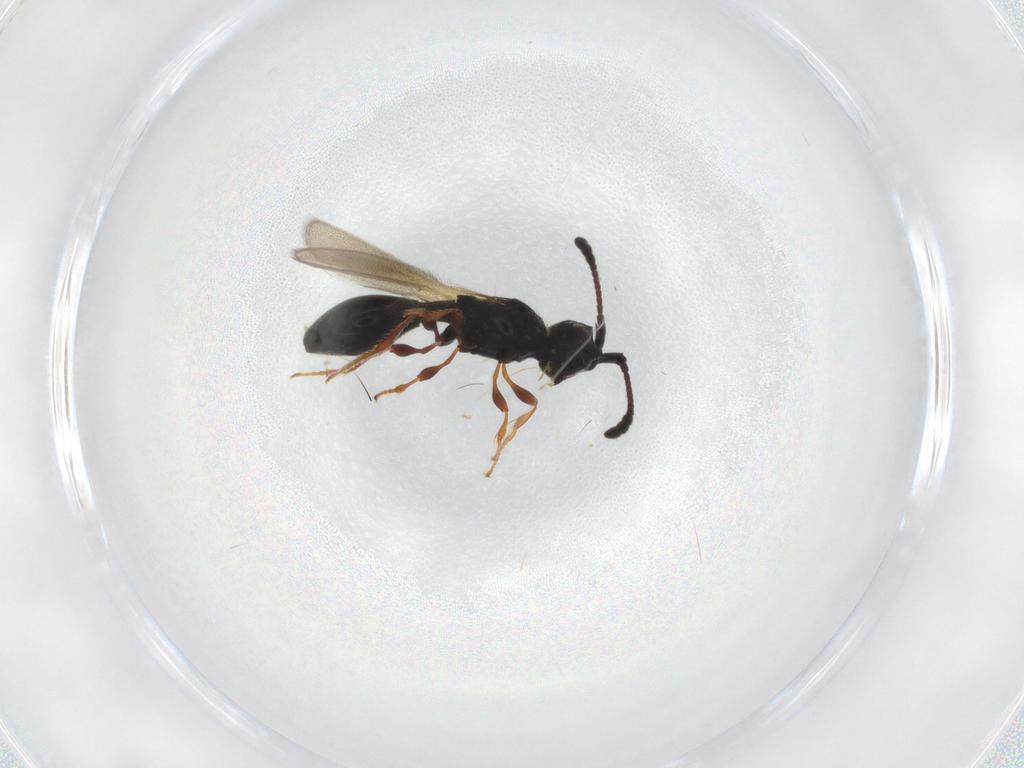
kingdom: Animalia
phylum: Arthropoda
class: Insecta
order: Hymenoptera
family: Diapriidae
